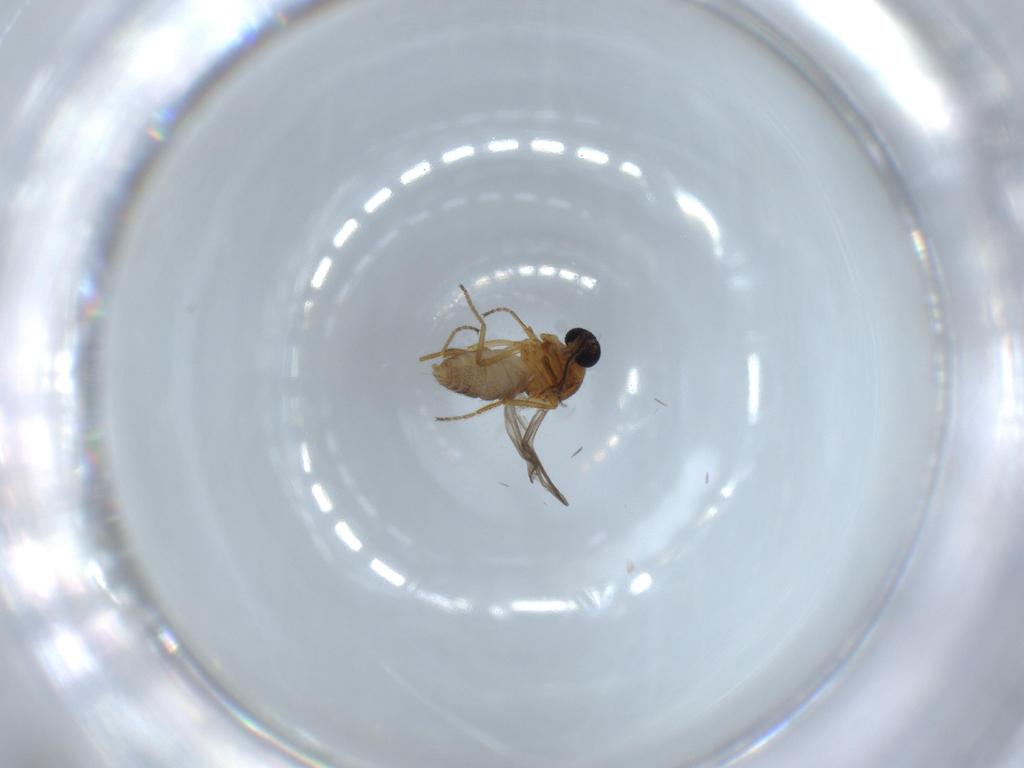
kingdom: Animalia
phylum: Arthropoda
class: Insecta
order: Diptera
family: Ceratopogonidae
